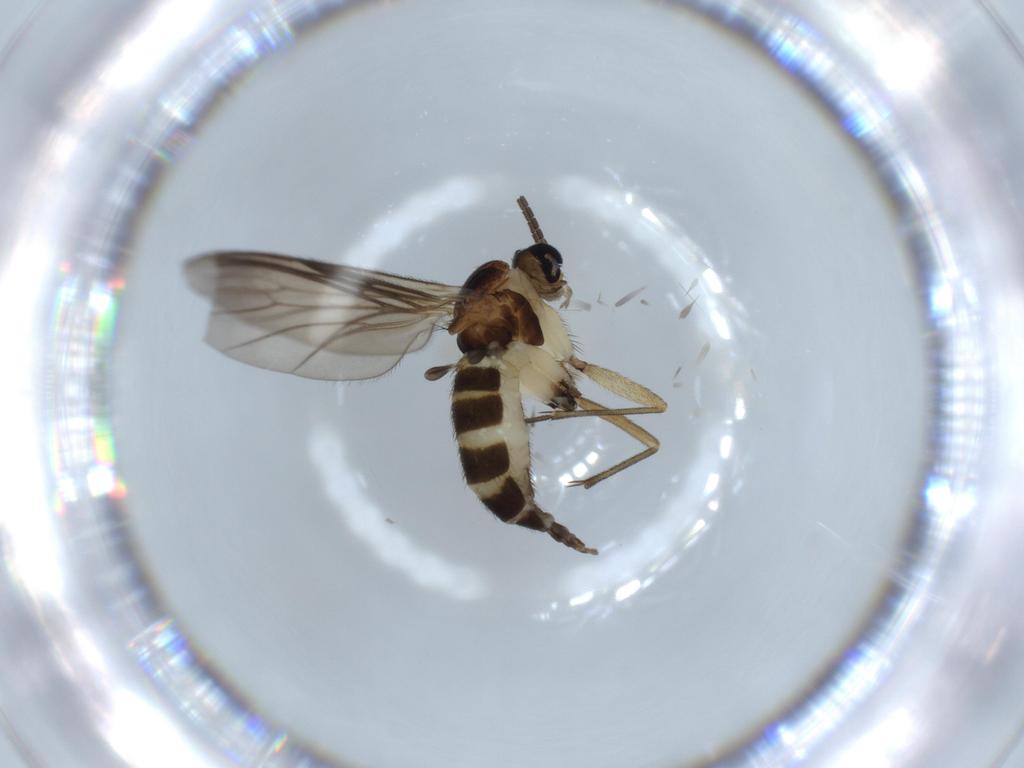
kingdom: Animalia
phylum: Arthropoda
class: Insecta
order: Diptera
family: Sciaridae
